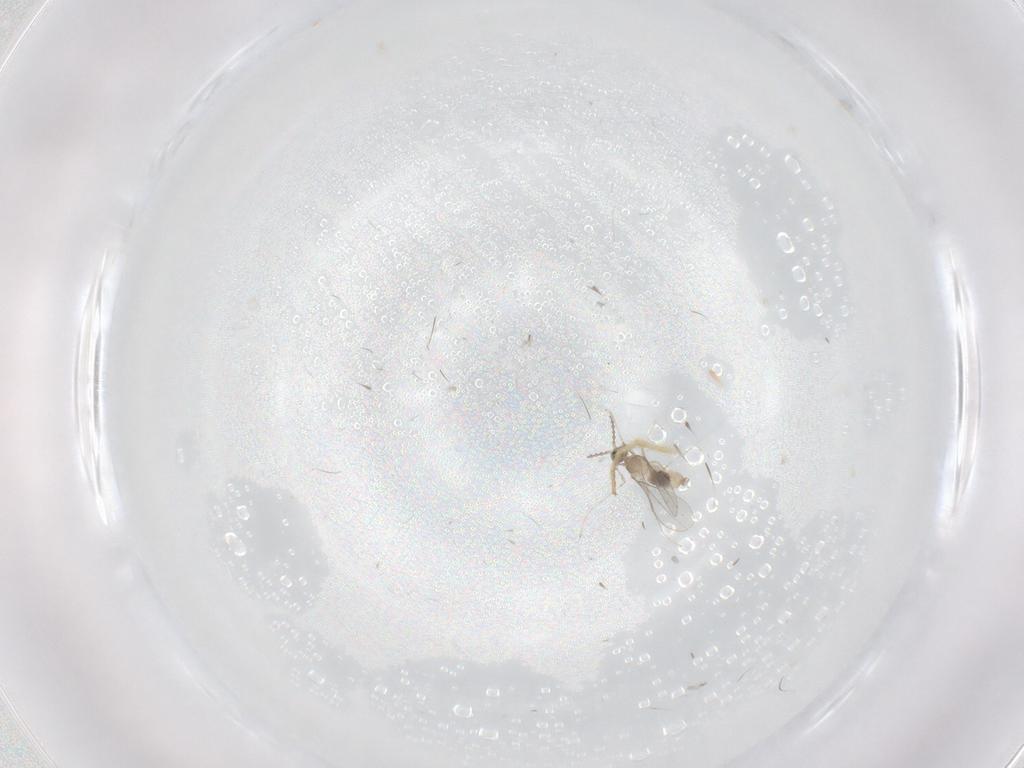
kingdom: Animalia
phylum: Arthropoda
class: Insecta
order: Diptera
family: Cecidomyiidae
